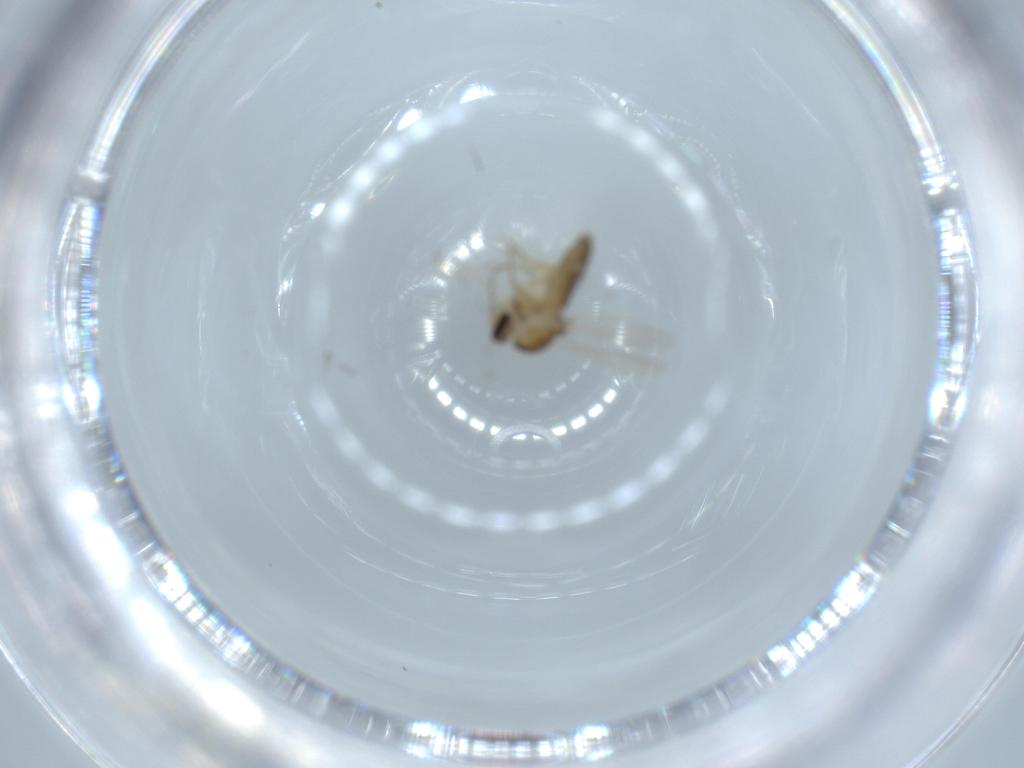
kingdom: Animalia
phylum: Arthropoda
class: Insecta
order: Diptera
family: Ceratopogonidae
